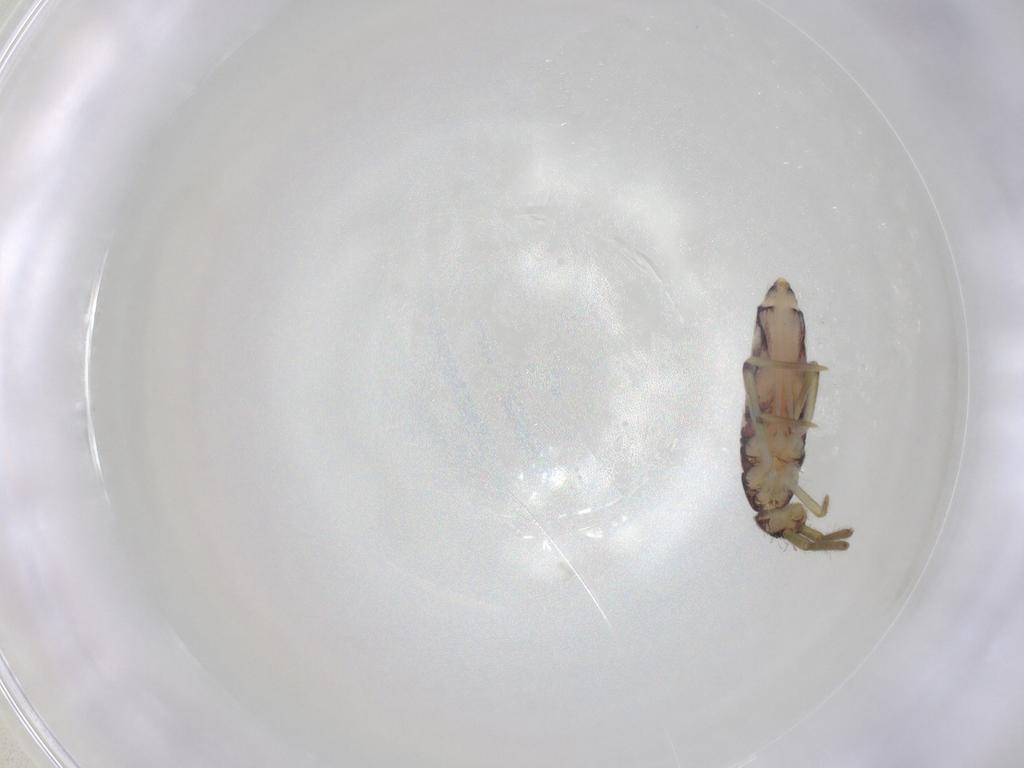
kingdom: Animalia
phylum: Arthropoda
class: Collembola
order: Entomobryomorpha
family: Entomobryidae
